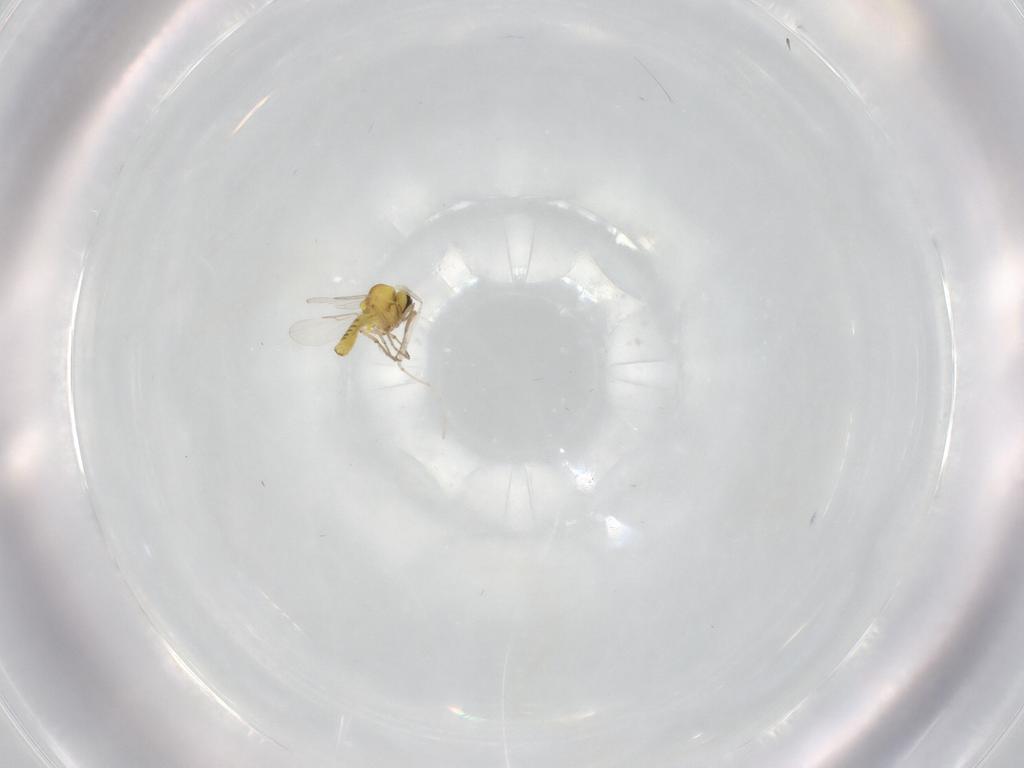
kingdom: Animalia
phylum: Arthropoda
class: Insecta
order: Diptera
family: Ceratopogonidae
